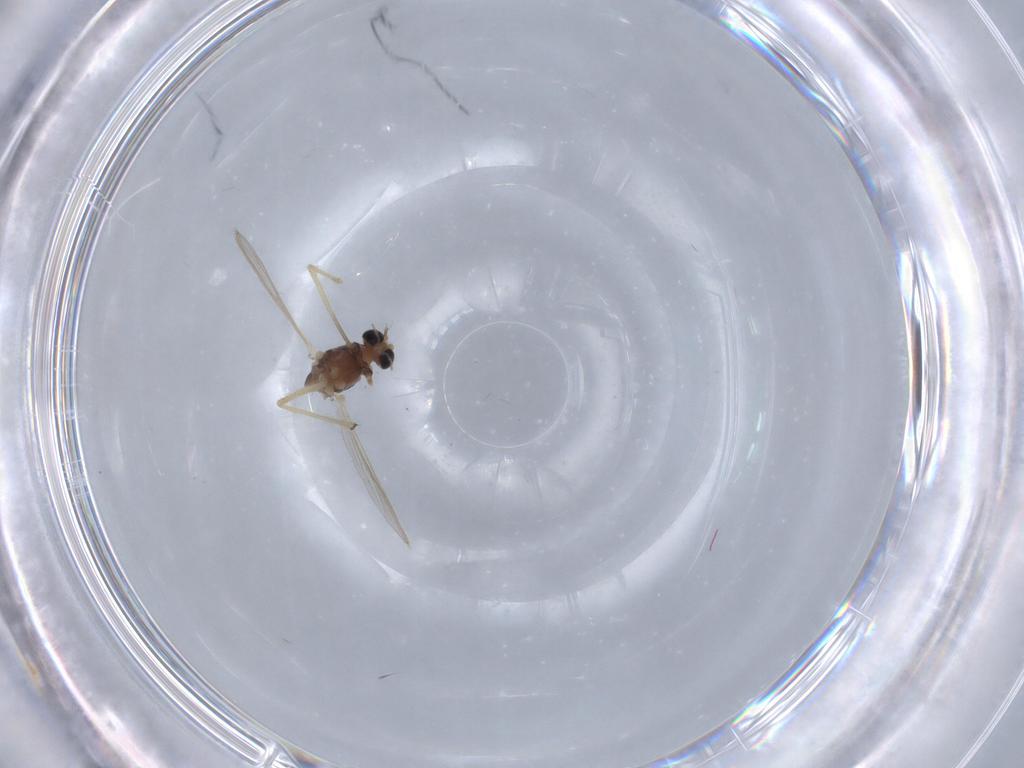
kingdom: Animalia
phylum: Arthropoda
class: Insecta
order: Diptera
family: Chironomidae
